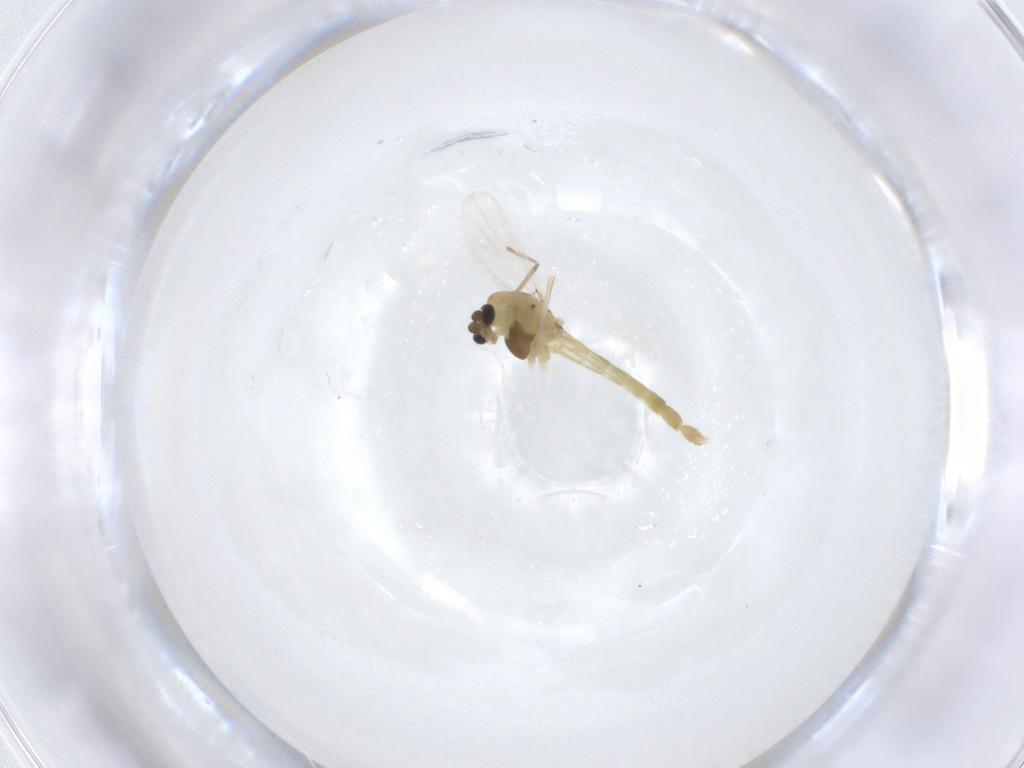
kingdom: Animalia
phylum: Arthropoda
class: Insecta
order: Diptera
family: Chironomidae
